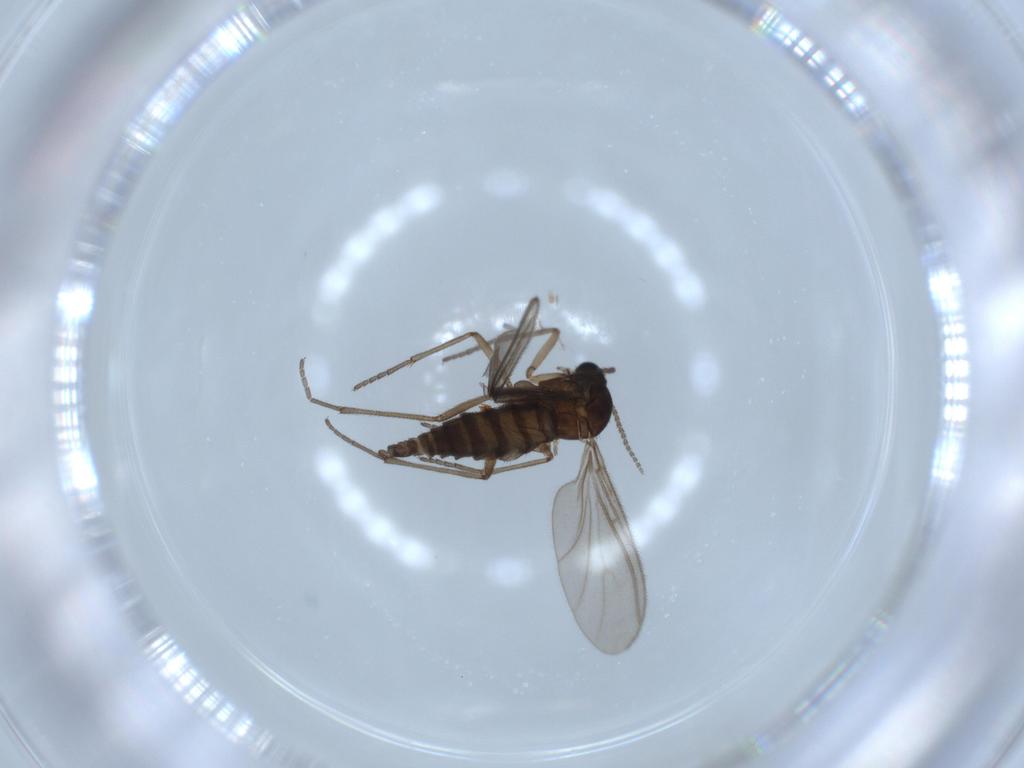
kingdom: Animalia
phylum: Arthropoda
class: Insecta
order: Diptera
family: Sciaridae
